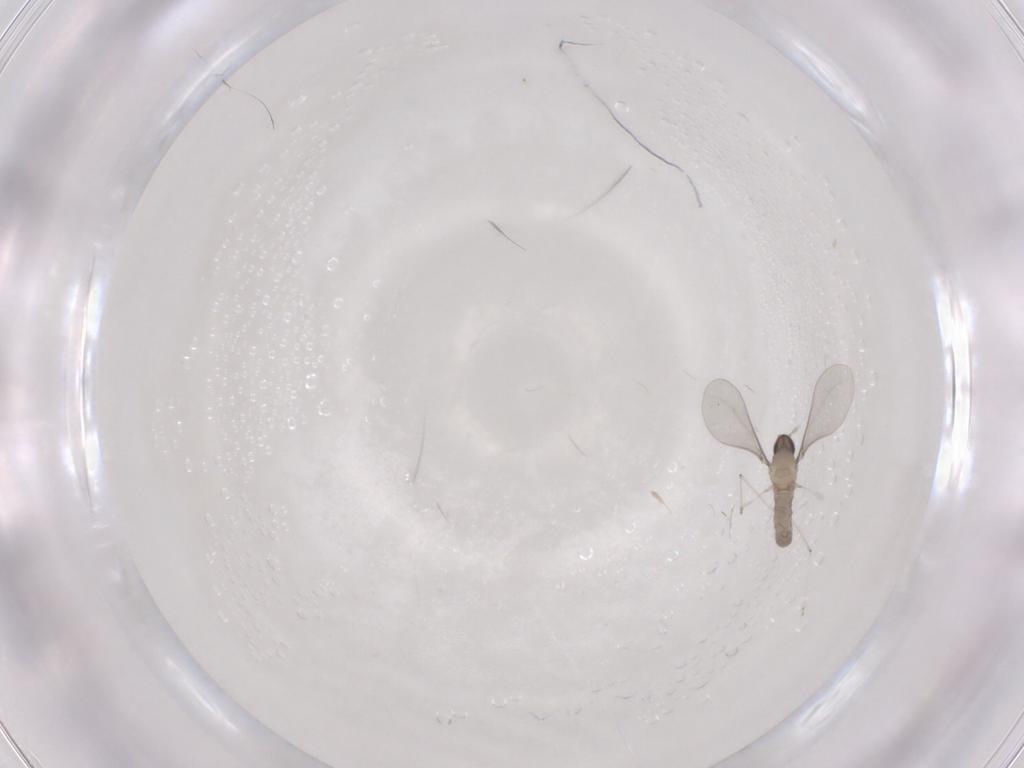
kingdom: Animalia
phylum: Arthropoda
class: Insecta
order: Diptera
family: Cecidomyiidae
